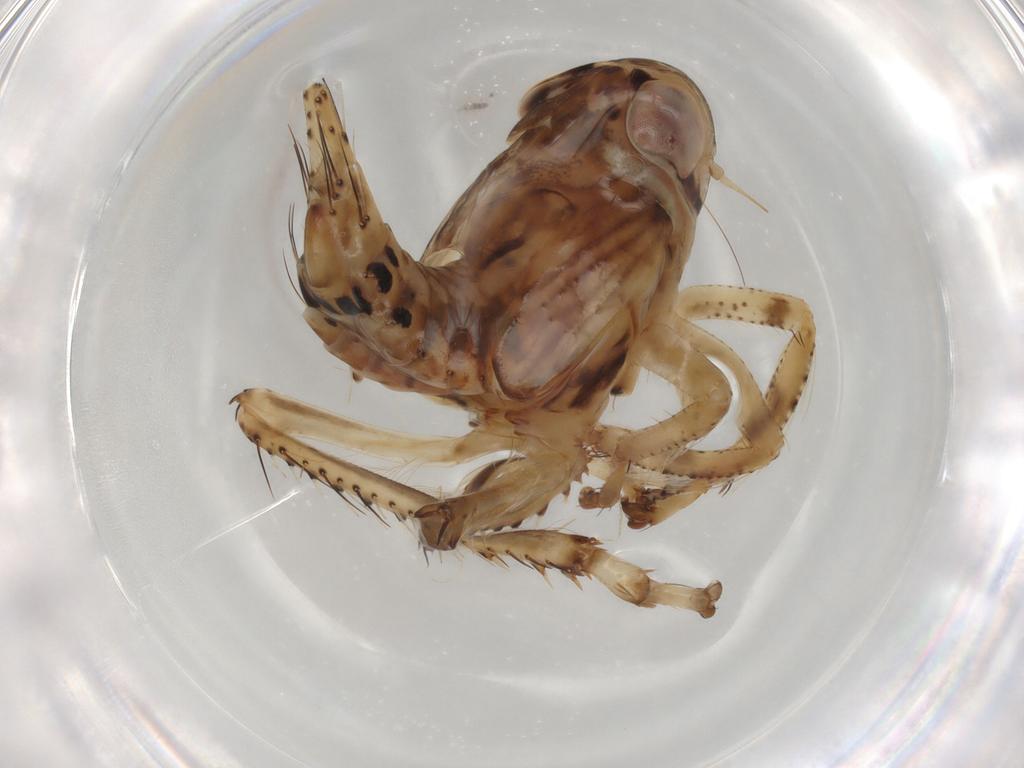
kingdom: Animalia
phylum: Arthropoda
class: Insecta
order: Hemiptera
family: Cicadellidae
